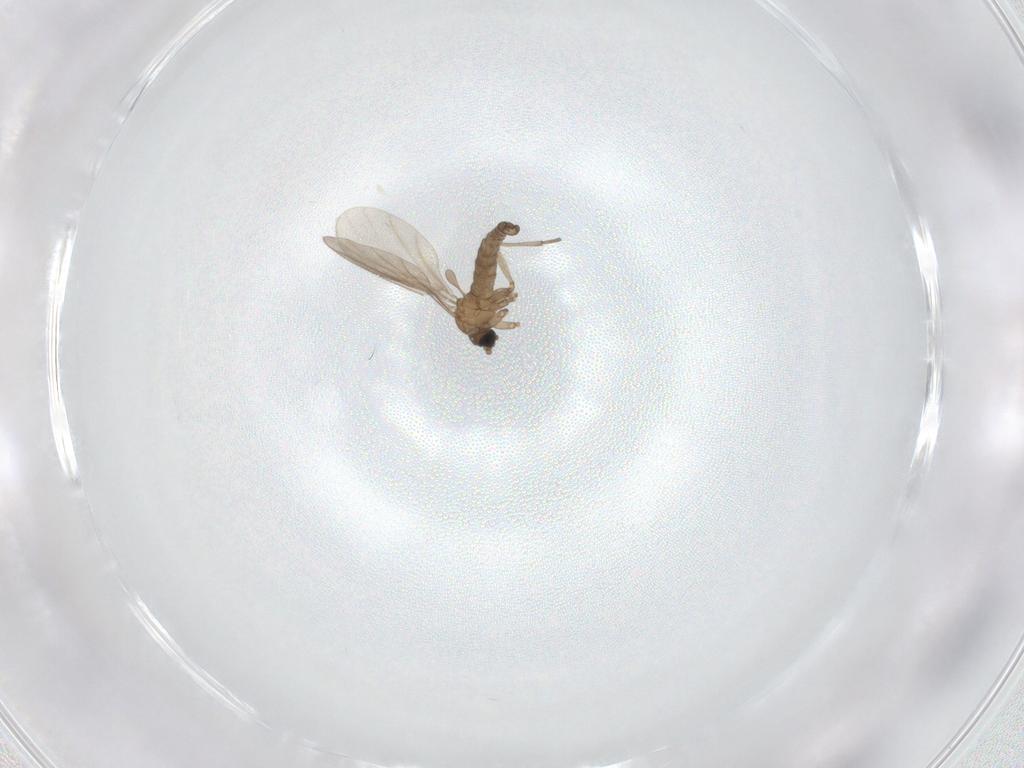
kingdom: Animalia
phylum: Arthropoda
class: Insecta
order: Diptera
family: Sciaridae
